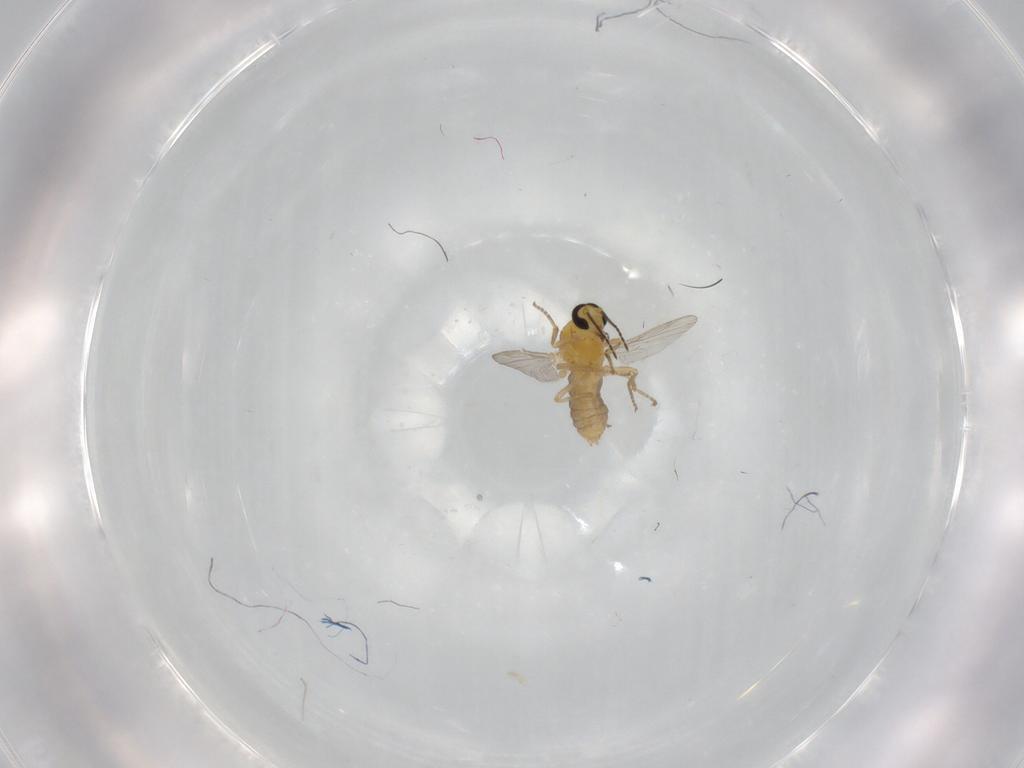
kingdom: Animalia
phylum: Arthropoda
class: Insecta
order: Diptera
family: Ceratopogonidae
